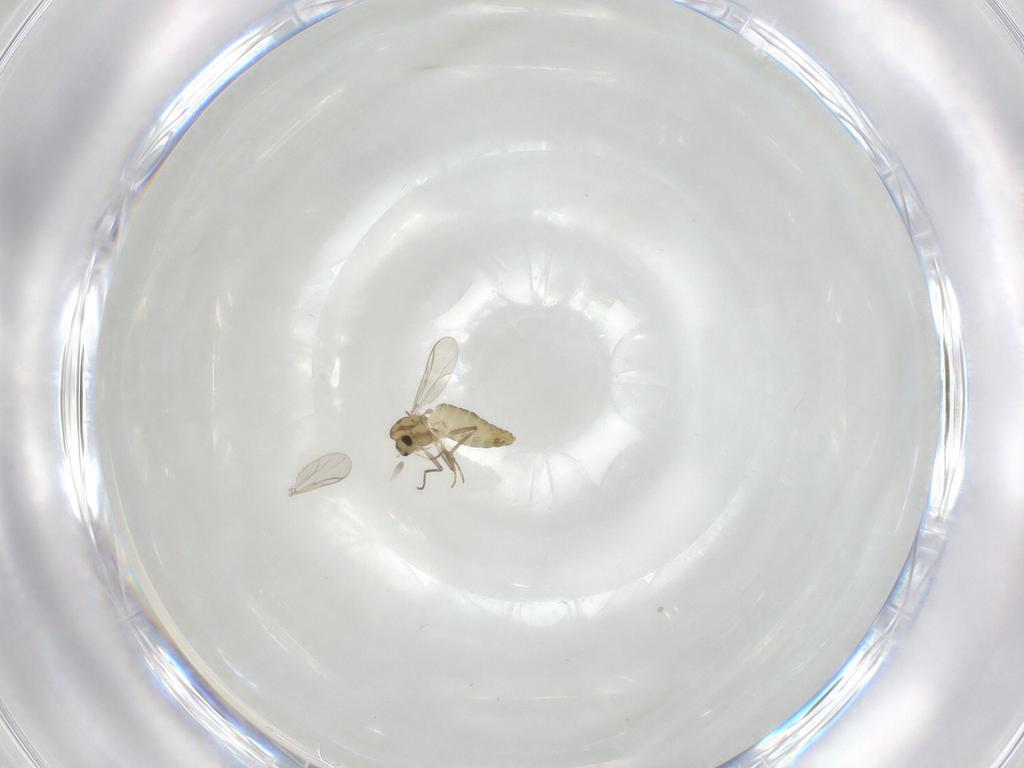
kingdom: Animalia
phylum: Arthropoda
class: Insecta
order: Diptera
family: Chironomidae
